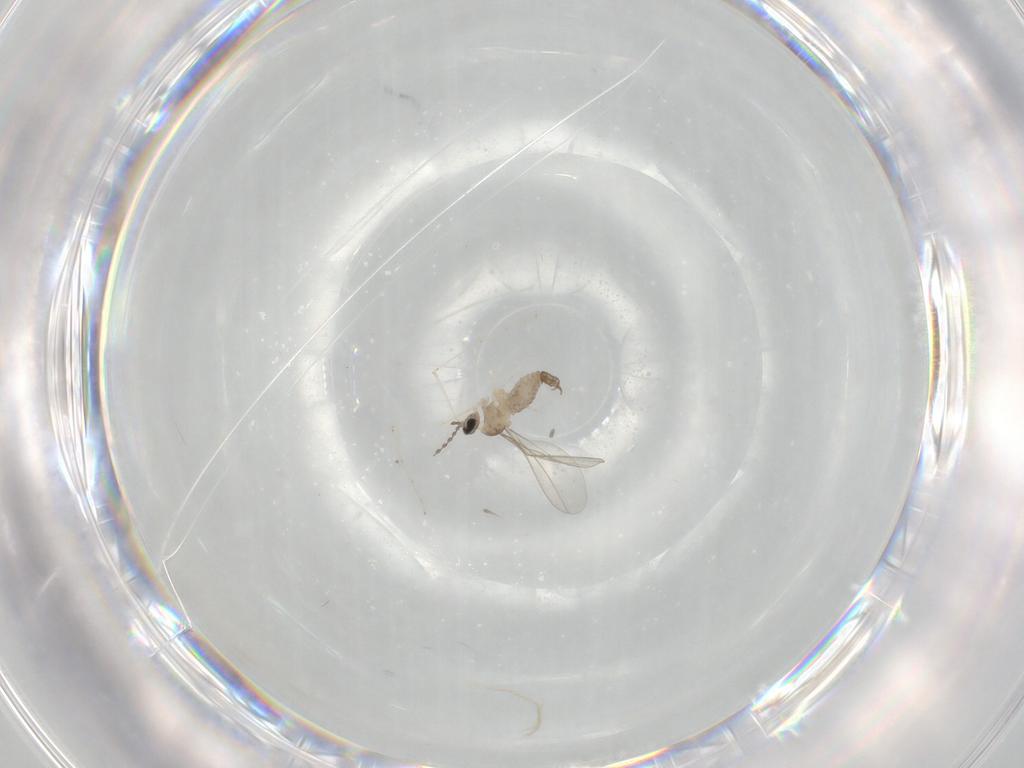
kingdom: Animalia
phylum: Arthropoda
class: Insecta
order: Diptera
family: Cecidomyiidae
